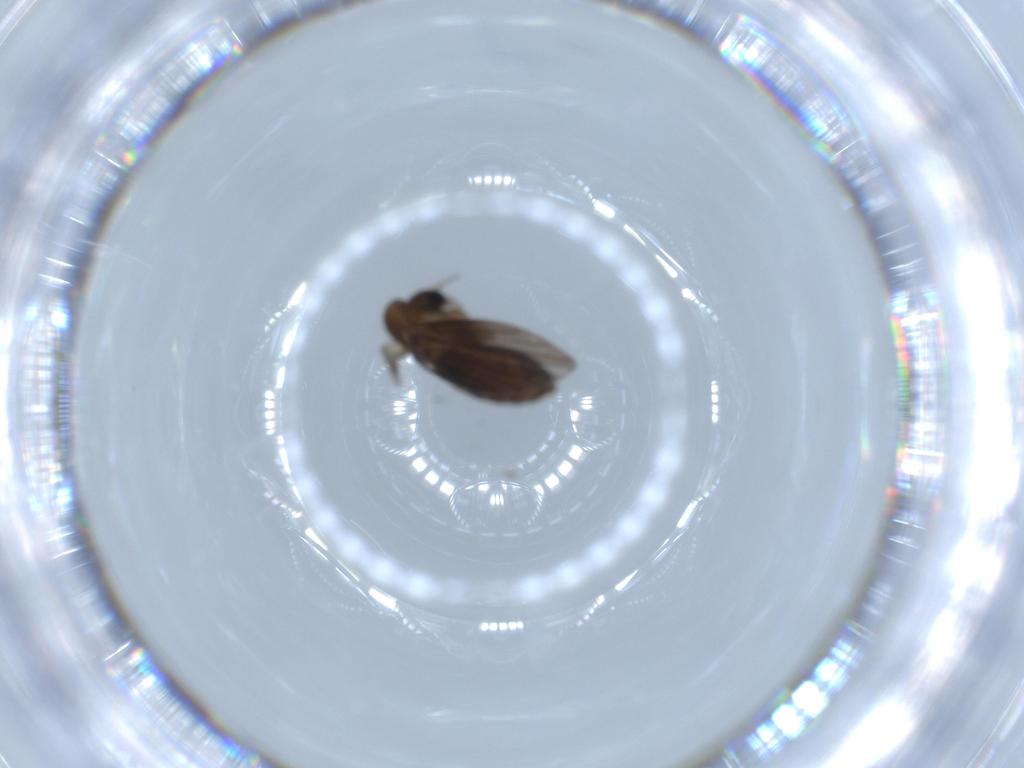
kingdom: Animalia
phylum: Arthropoda
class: Insecta
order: Diptera
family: Psychodidae
